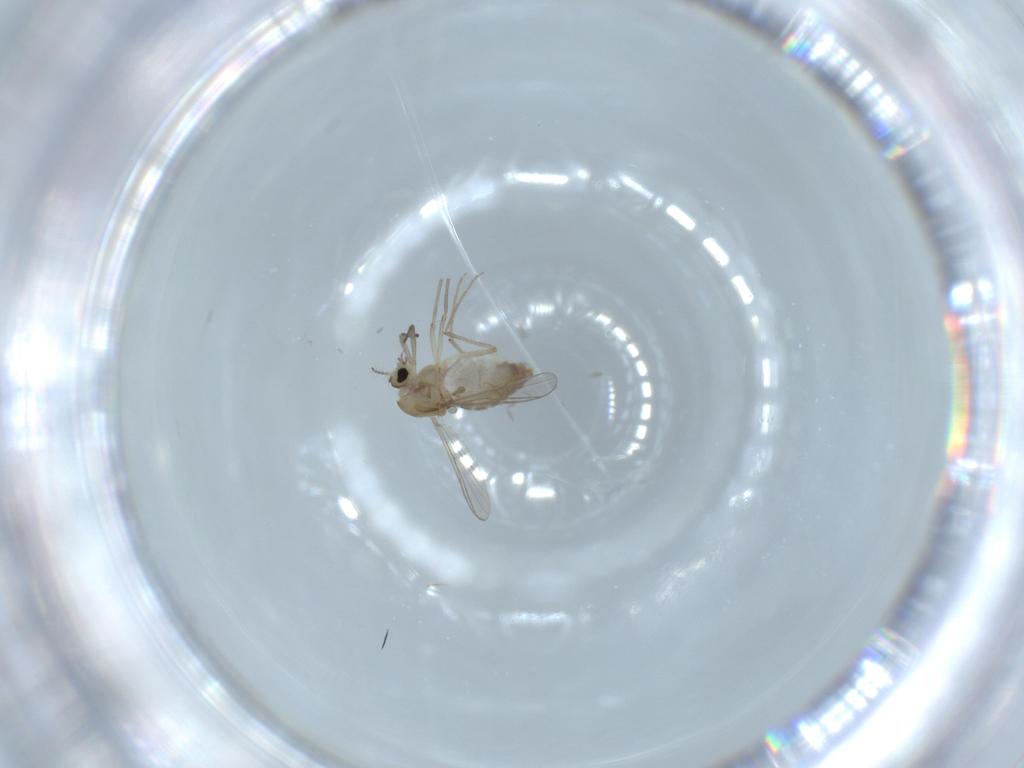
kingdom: Animalia
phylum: Arthropoda
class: Insecta
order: Diptera
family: Chironomidae
